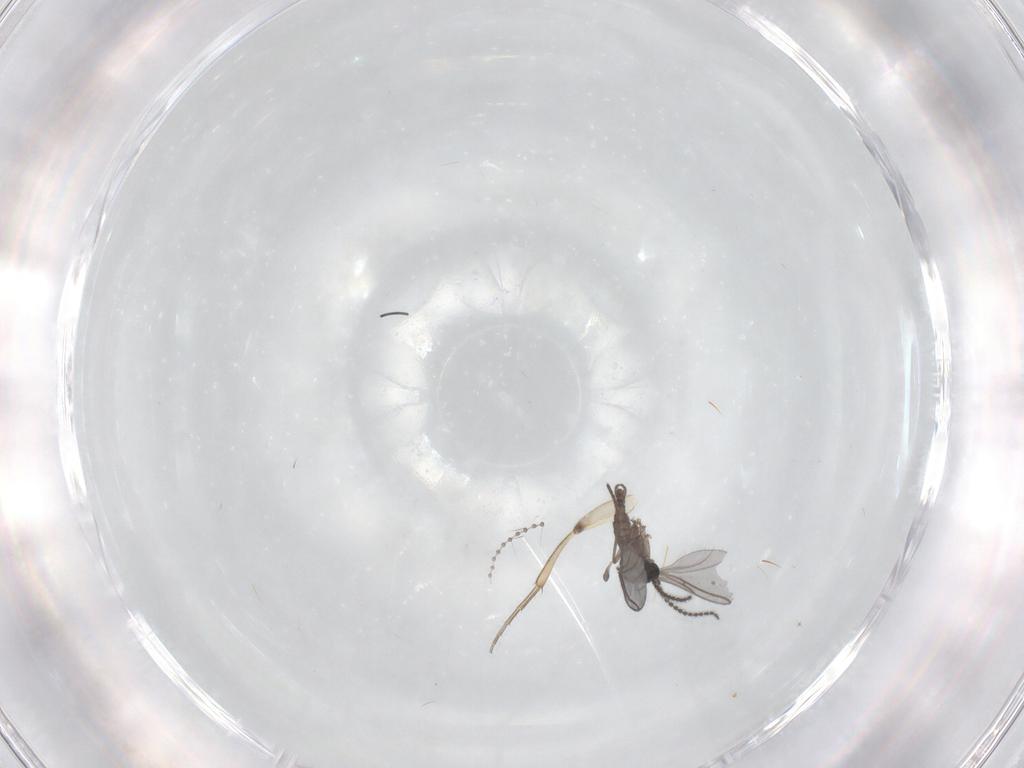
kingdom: Animalia
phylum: Arthropoda
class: Insecta
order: Diptera
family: Cecidomyiidae
